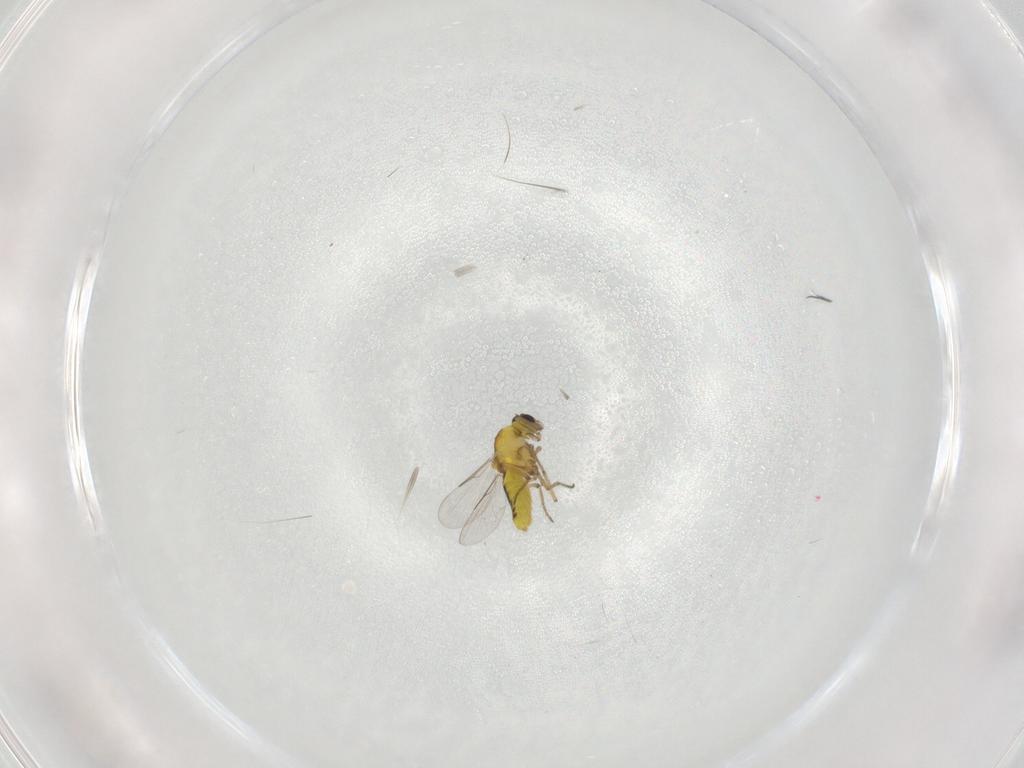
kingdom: Animalia
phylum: Arthropoda
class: Insecta
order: Diptera
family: Ceratopogonidae
